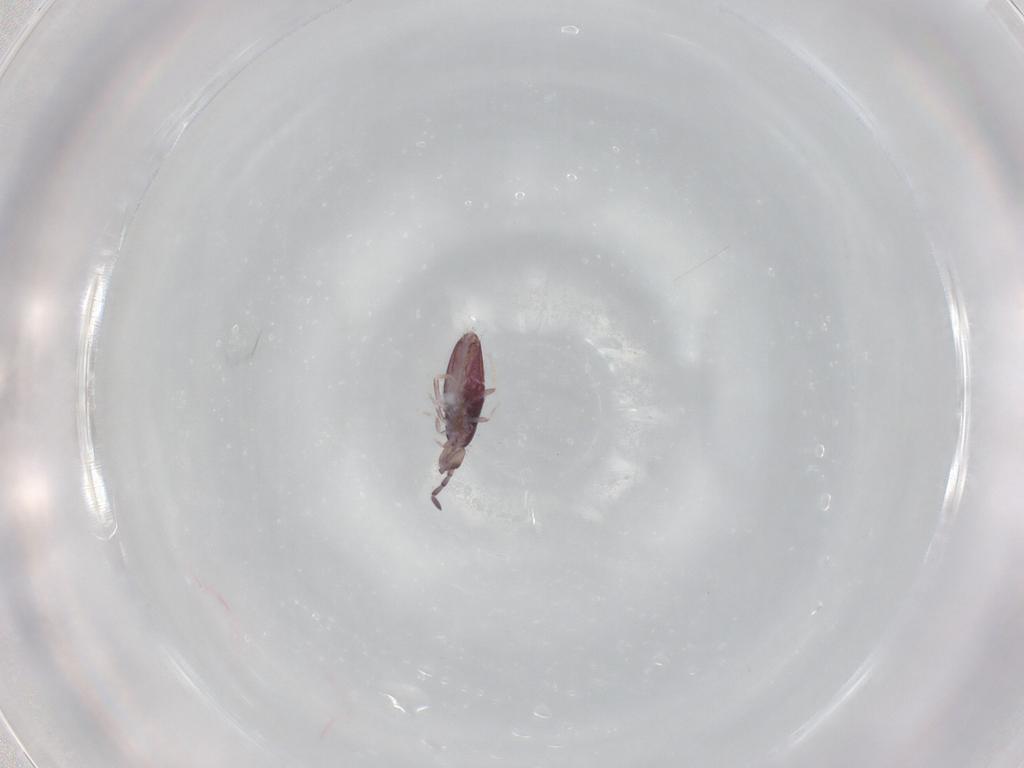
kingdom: Animalia
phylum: Arthropoda
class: Collembola
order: Entomobryomorpha
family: Entomobryidae
